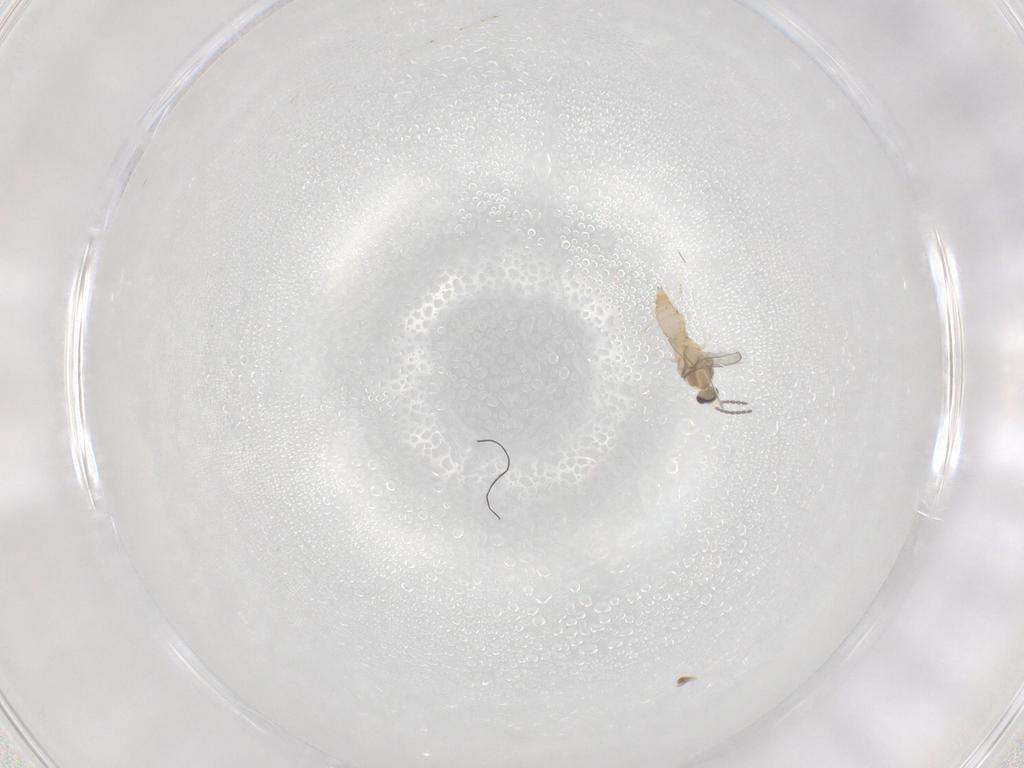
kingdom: Animalia
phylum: Arthropoda
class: Insecta
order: Diptera
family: Cecidomyiidae
